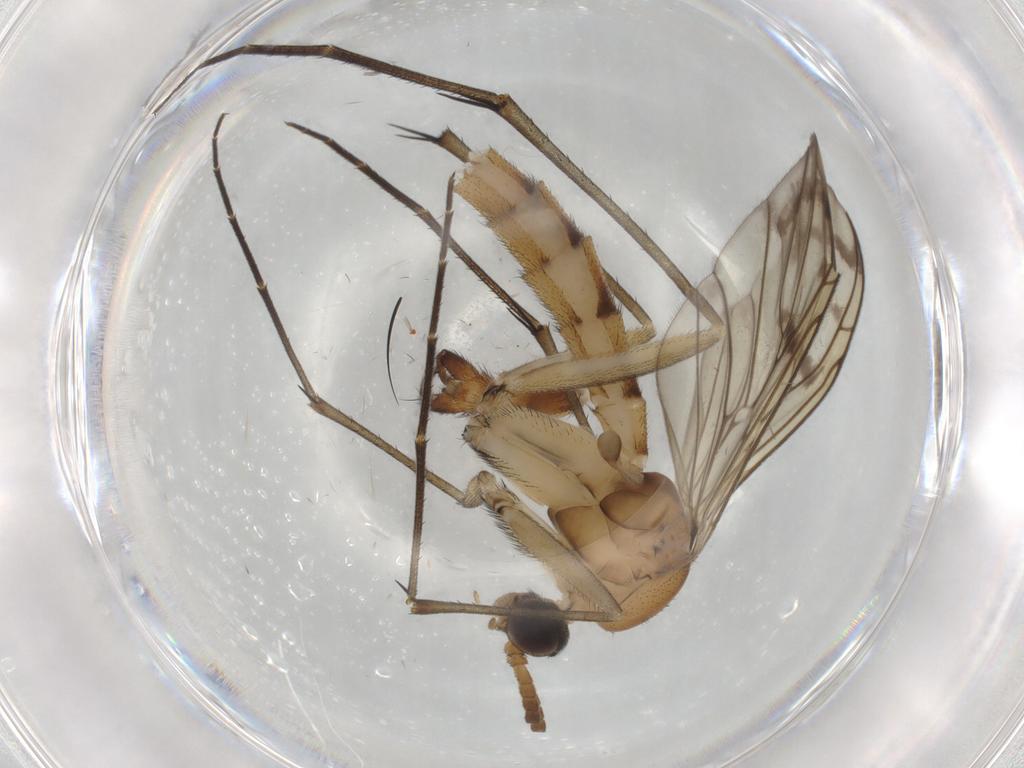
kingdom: Animalia
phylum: Arthropoda
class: Insecta
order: Diptera
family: Keroplatidae
